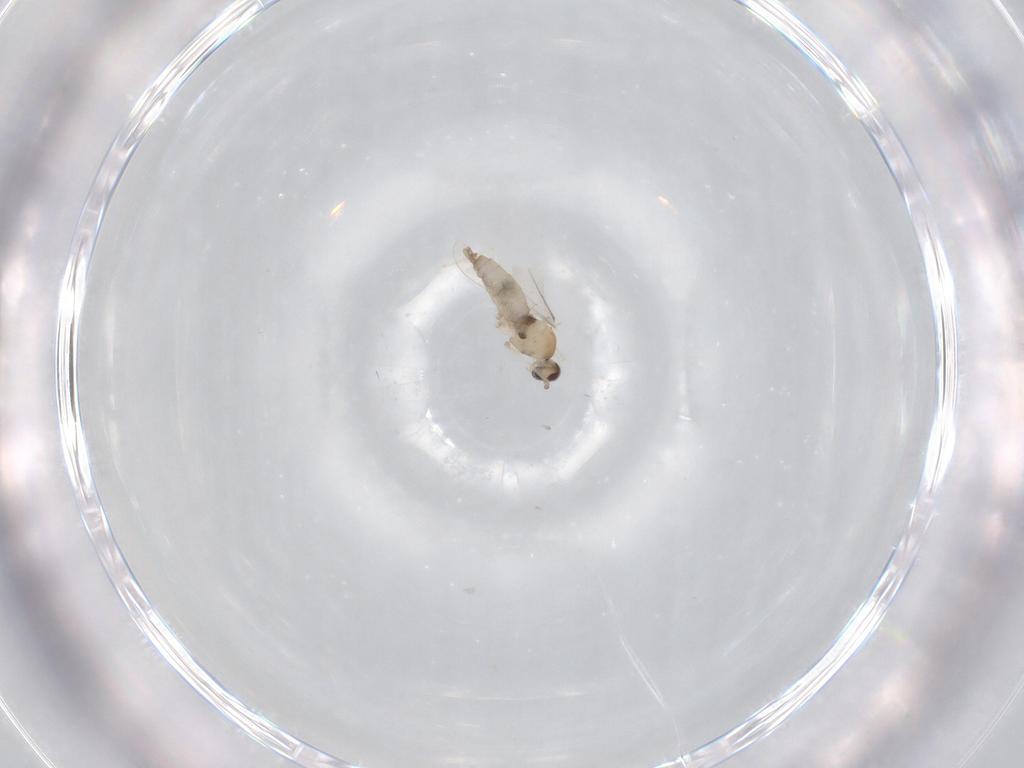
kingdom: Animalia
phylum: Arthropoda
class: Insecta
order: Diptera
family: Cecidomyiidae
